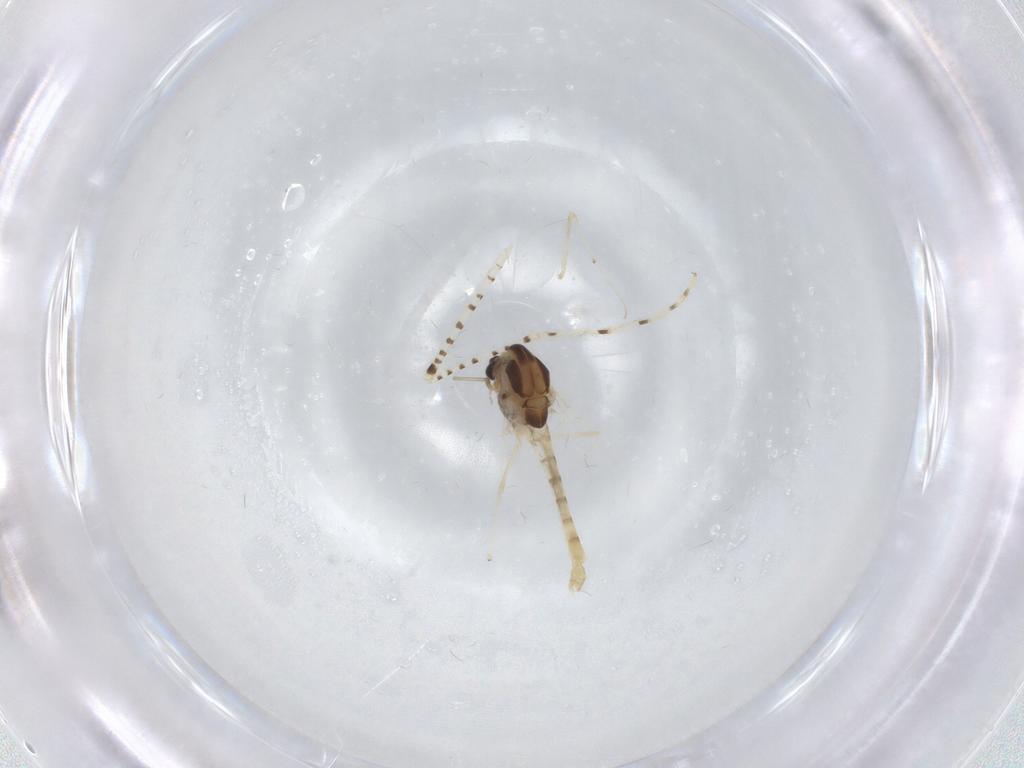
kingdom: Animalia
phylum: Arthropoda
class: Insecta
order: Diptera
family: Chaoboridae
